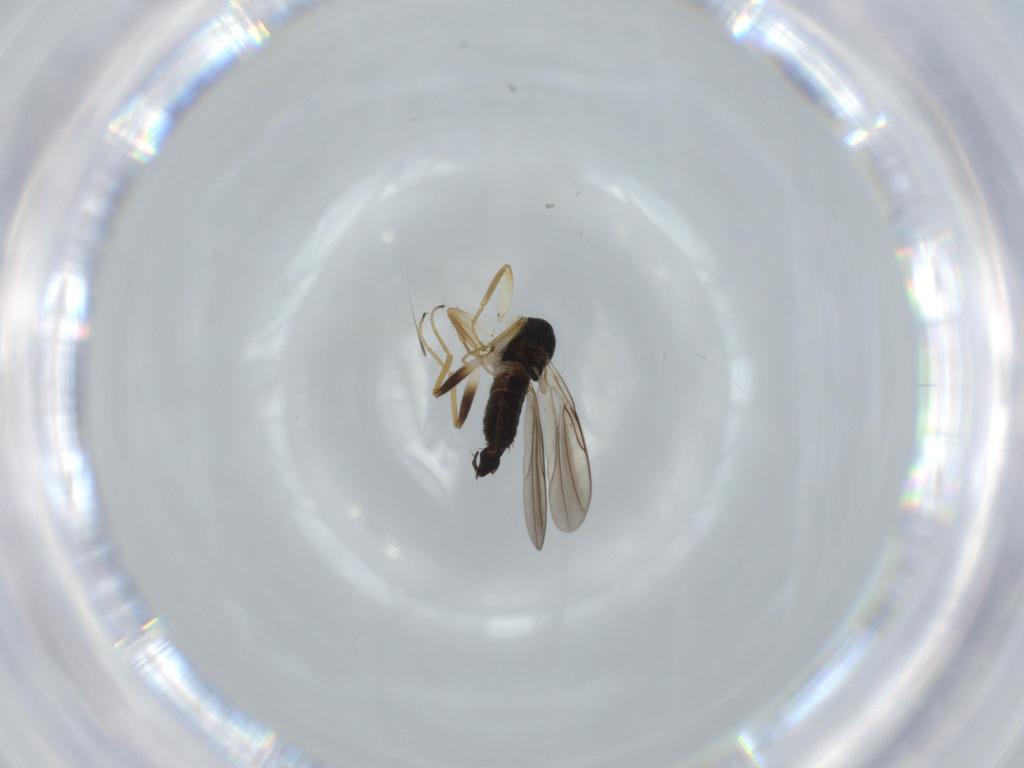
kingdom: Animalia
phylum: Arthropoda
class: Insecta
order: Diptera
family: Hybotidae
